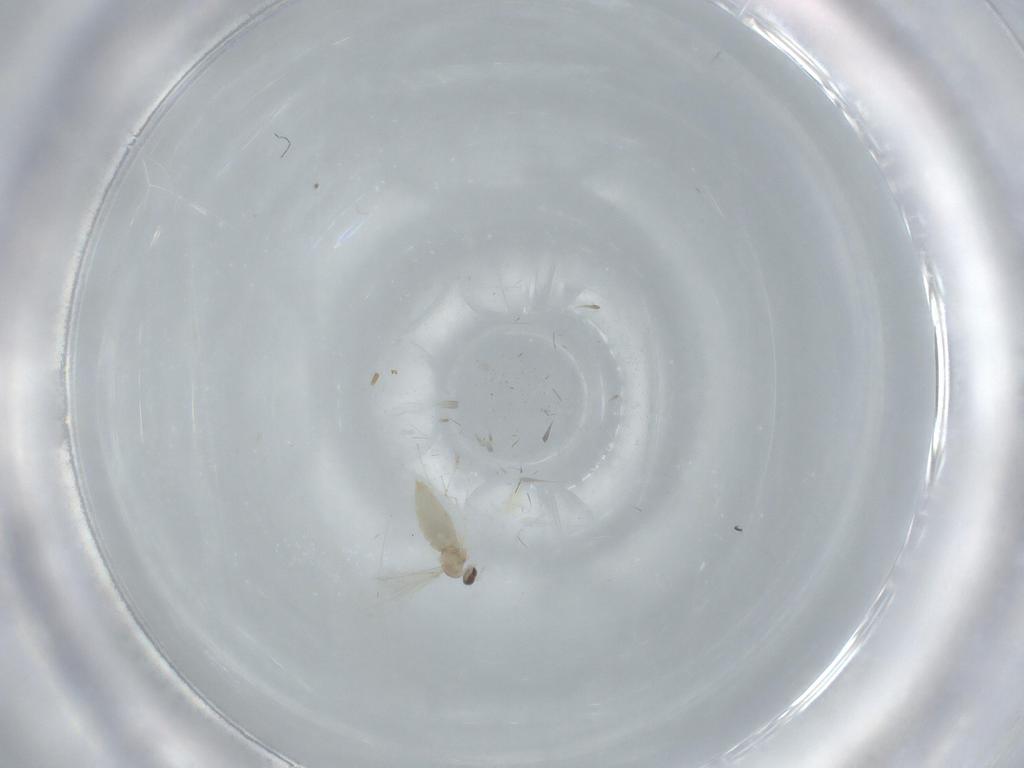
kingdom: Animalia
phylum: Arthropoda
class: Insecta
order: Diptera
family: Cecidomyiidae
